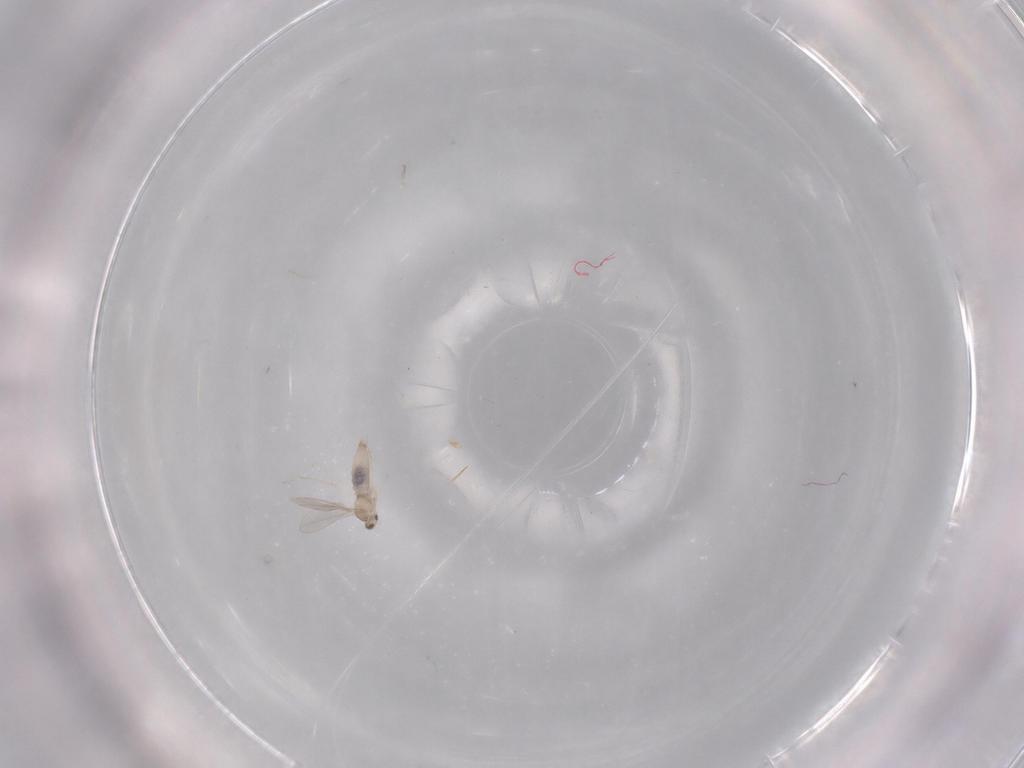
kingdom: Animalia
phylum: Arthropoda
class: Insecta
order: Diptera
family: Cecidomyiidae
